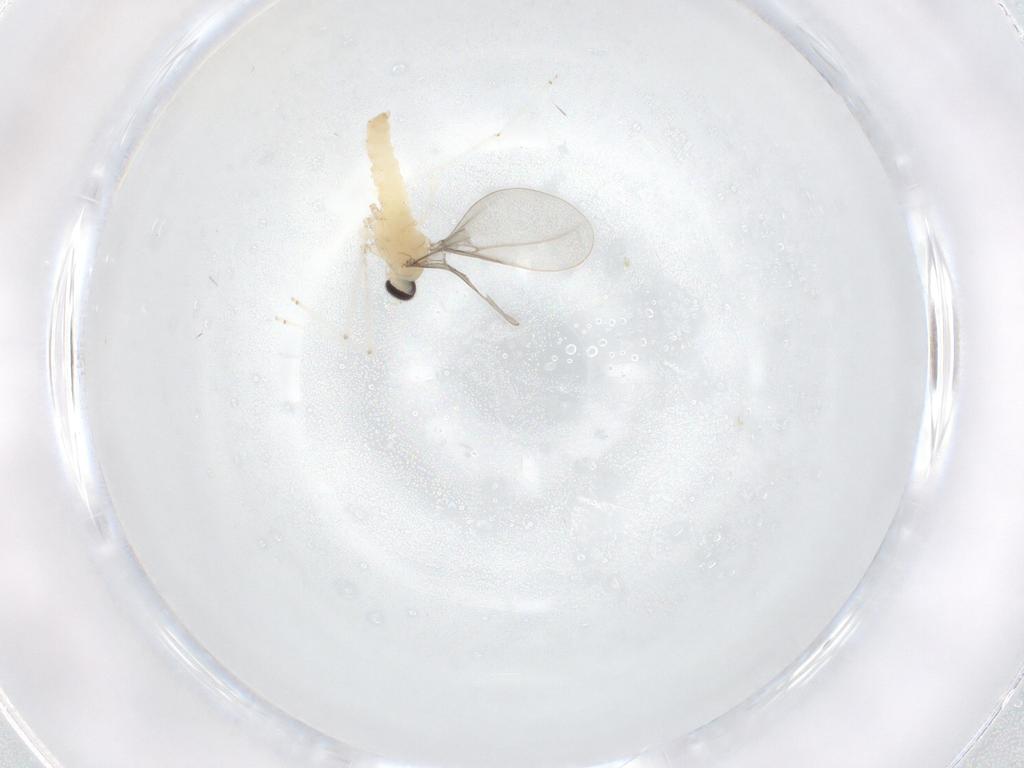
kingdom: Animalia
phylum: Arthropoda
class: Insecta
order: Diptera
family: Cecidomyiidae
